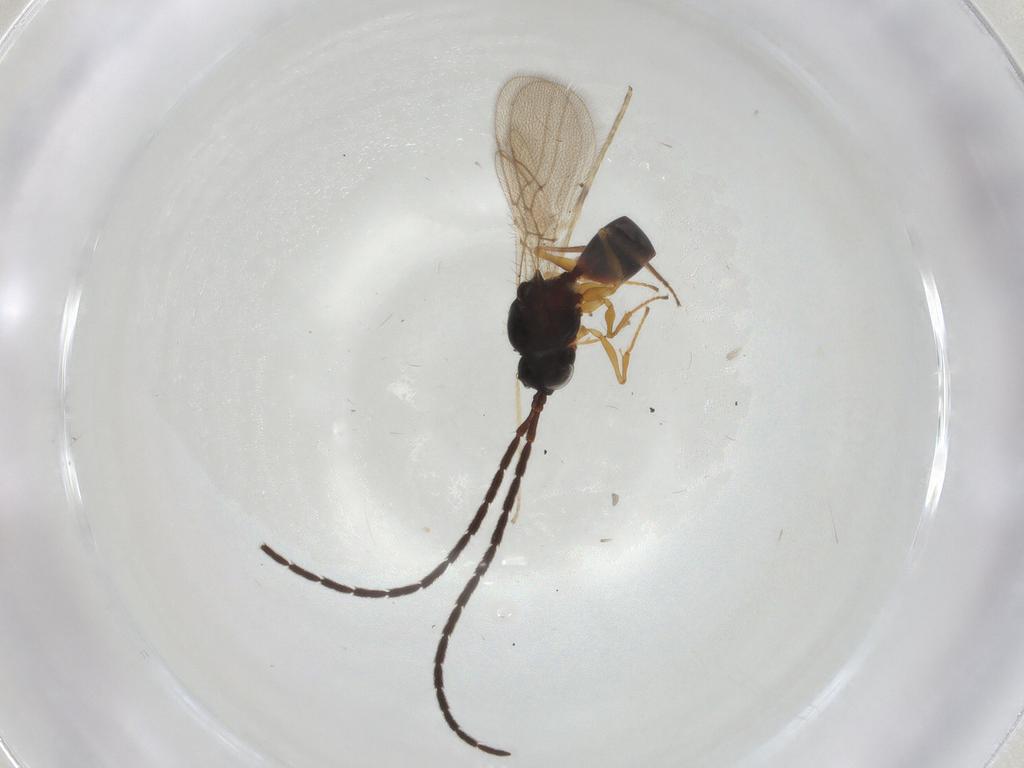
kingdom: Animalia
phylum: Arthropoda
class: Insecta
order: Hymenoptera
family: Figitidae
